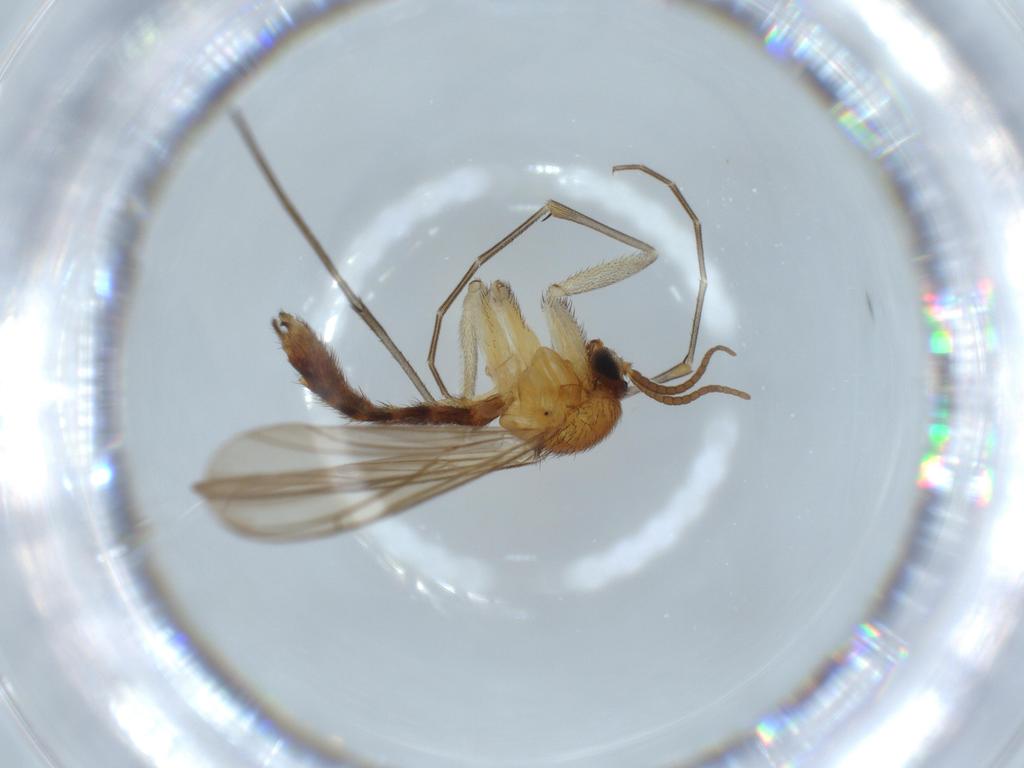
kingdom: Animalia
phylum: Arthropoda
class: Insecta
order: Diptera
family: Keroplatidae
